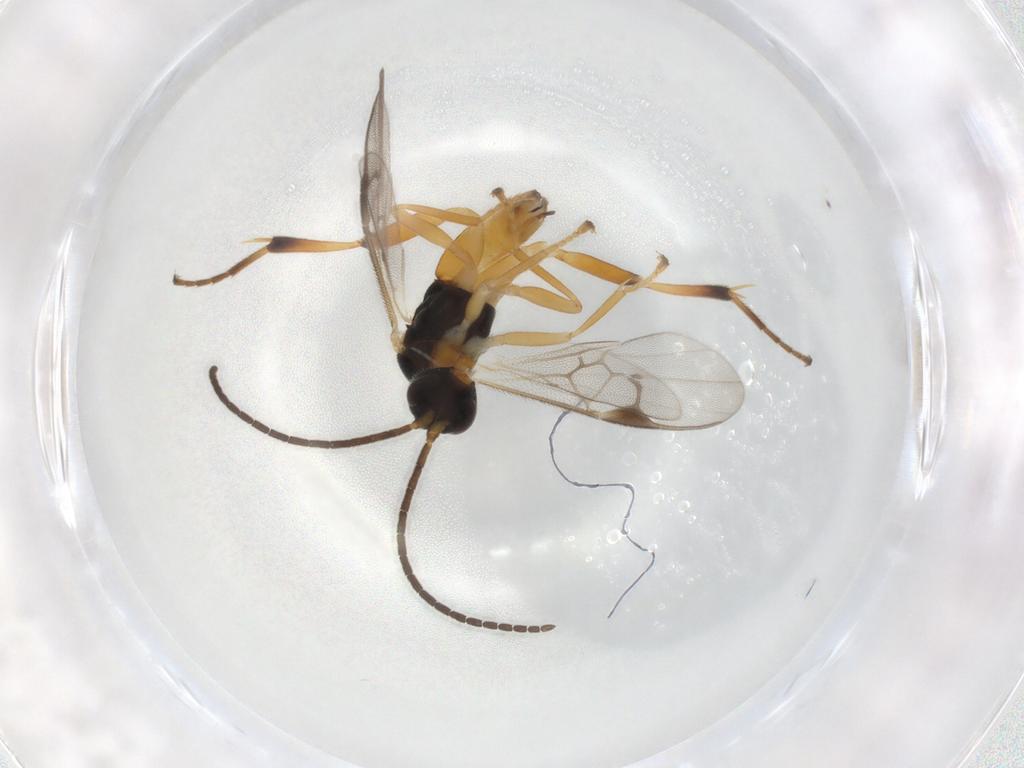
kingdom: Animalia
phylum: Arthropoda
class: Insecta
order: Hymenoptera
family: Braconidae
